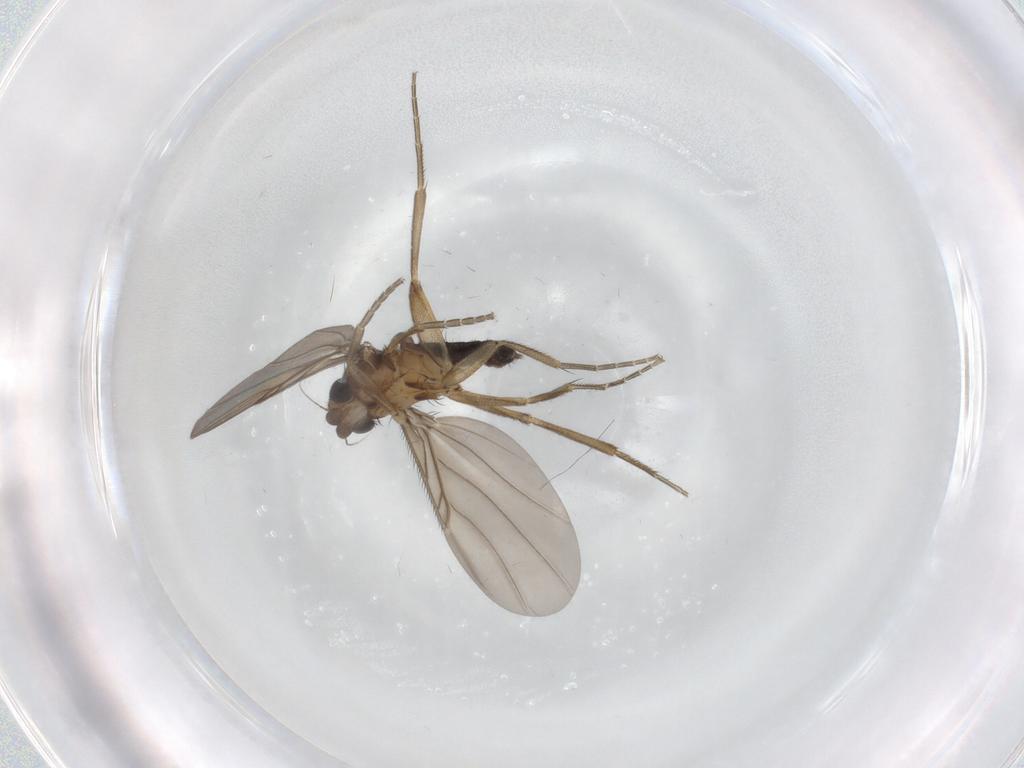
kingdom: Animalia
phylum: Arthropoda
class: Insecta
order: Diptera
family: Phoridae
